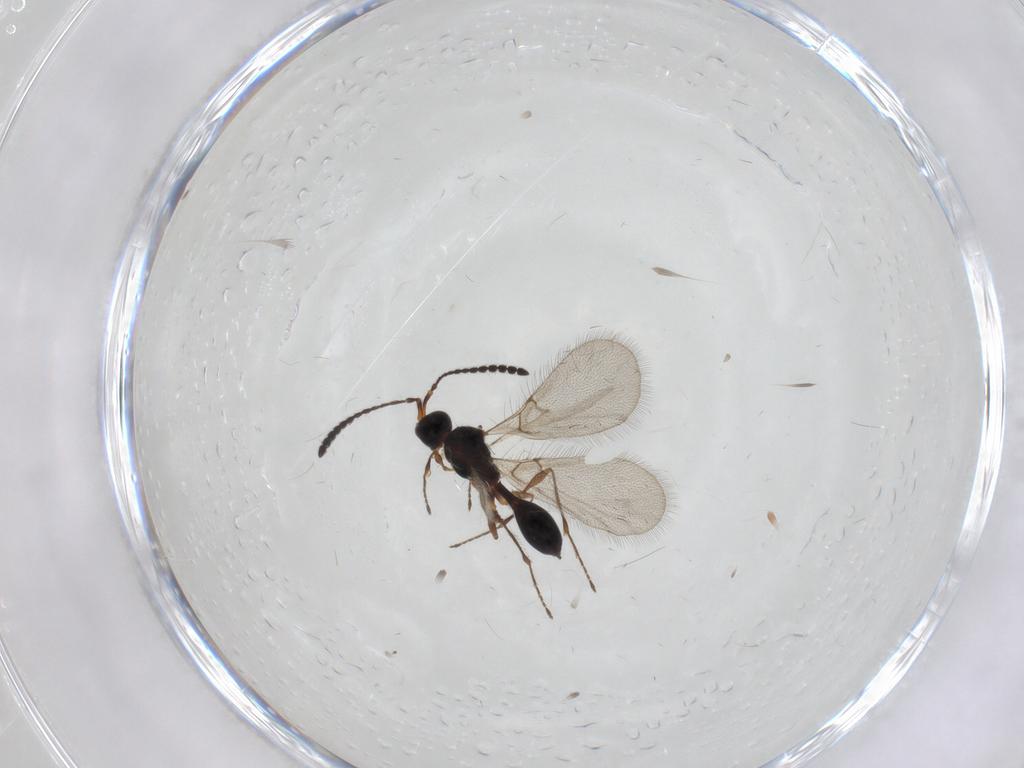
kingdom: Animalia
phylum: Arthropoda
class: Insecta
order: Hymenoptera
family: Diapriidae
